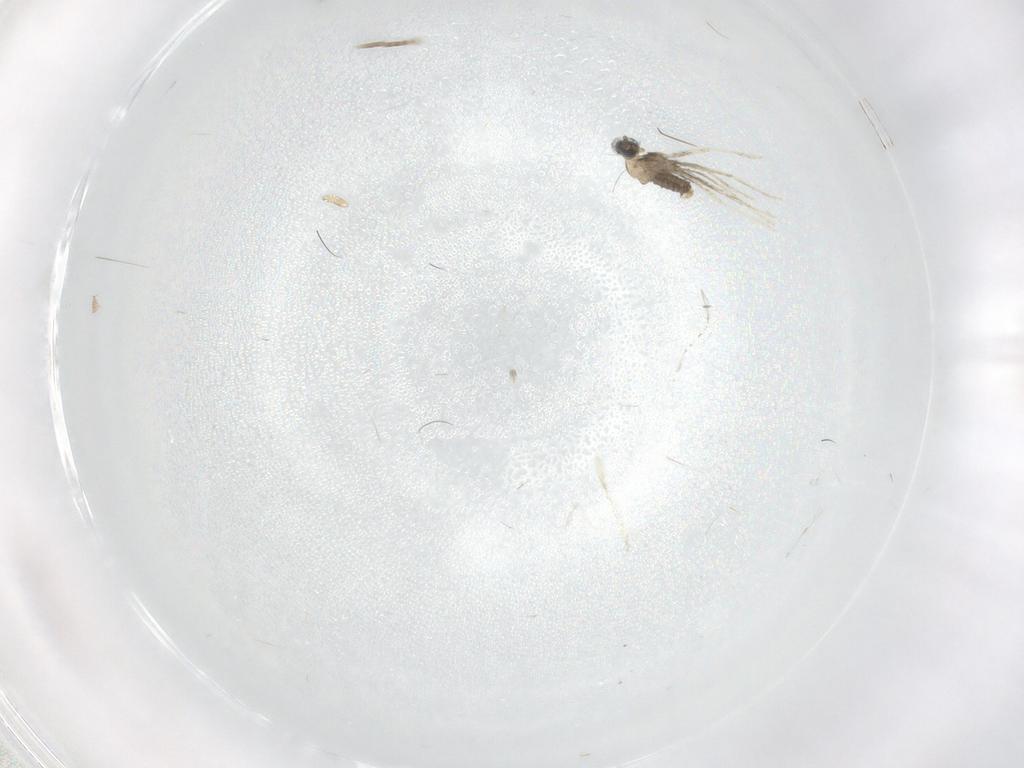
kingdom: Animalia
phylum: Arthropoda
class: Insecta
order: Diptera
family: Cecidomyiidae
